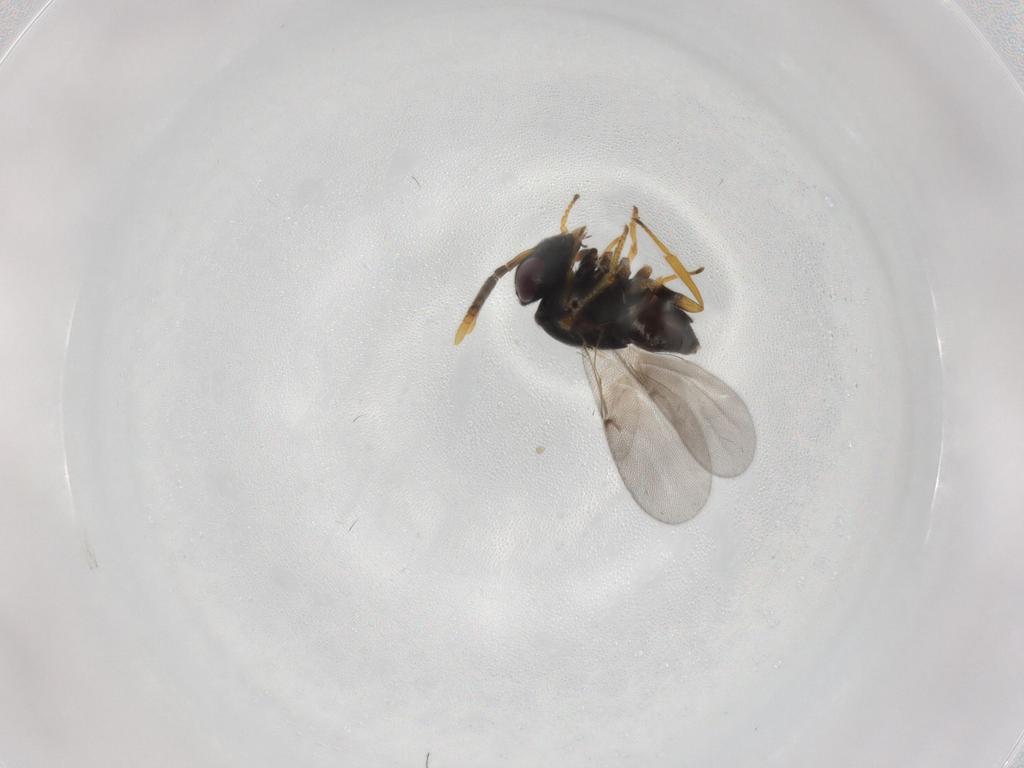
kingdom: Animalia
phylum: Arthropoda
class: Insecta
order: Hymenoptera
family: Encyrtidae
